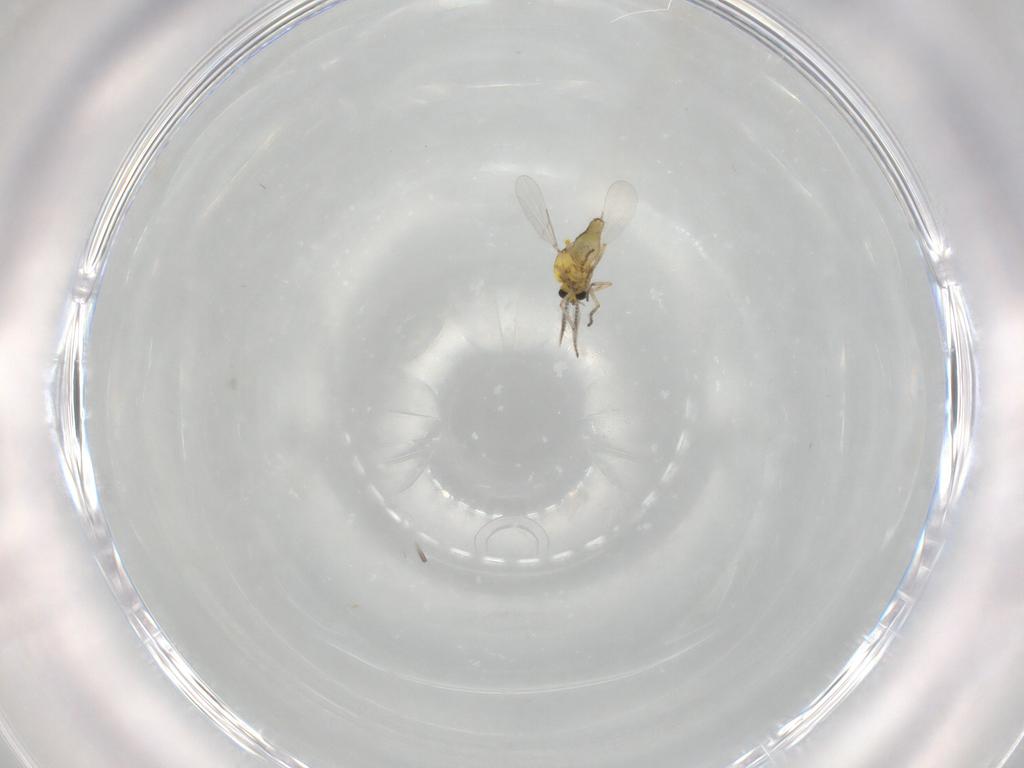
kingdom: Animalia
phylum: Arthropoda
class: Insecta
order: Diptera
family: Ceratopogonidae
